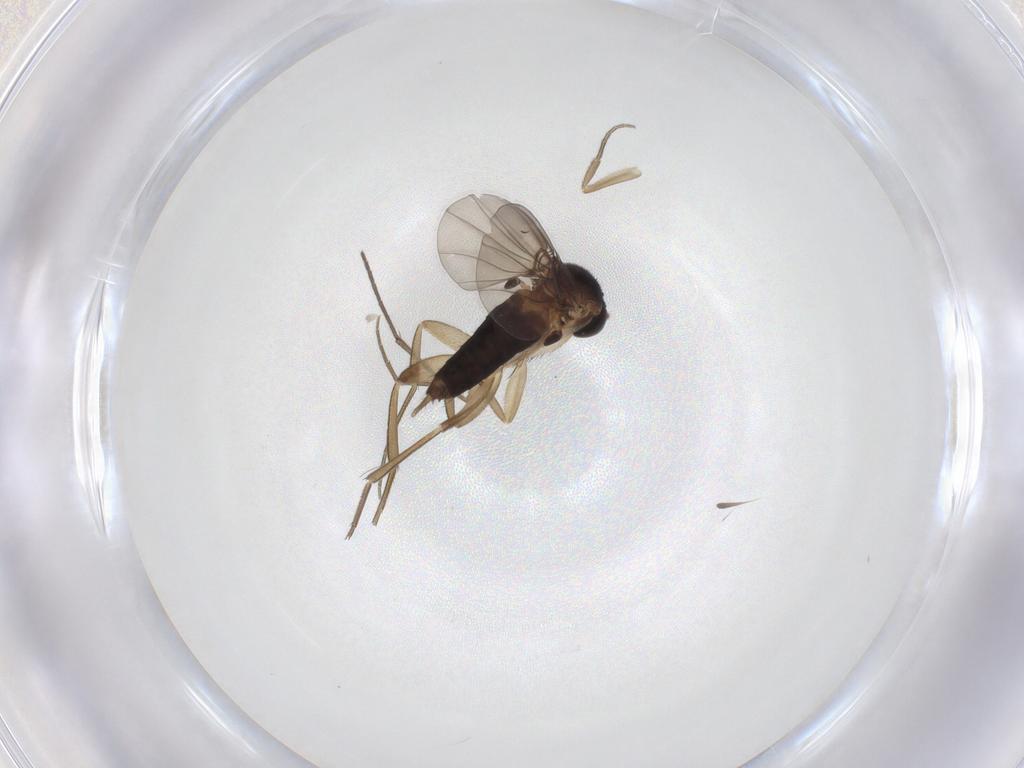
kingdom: Animalia
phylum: Arthropoda
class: Insecta
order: Diptera
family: Phoridae
